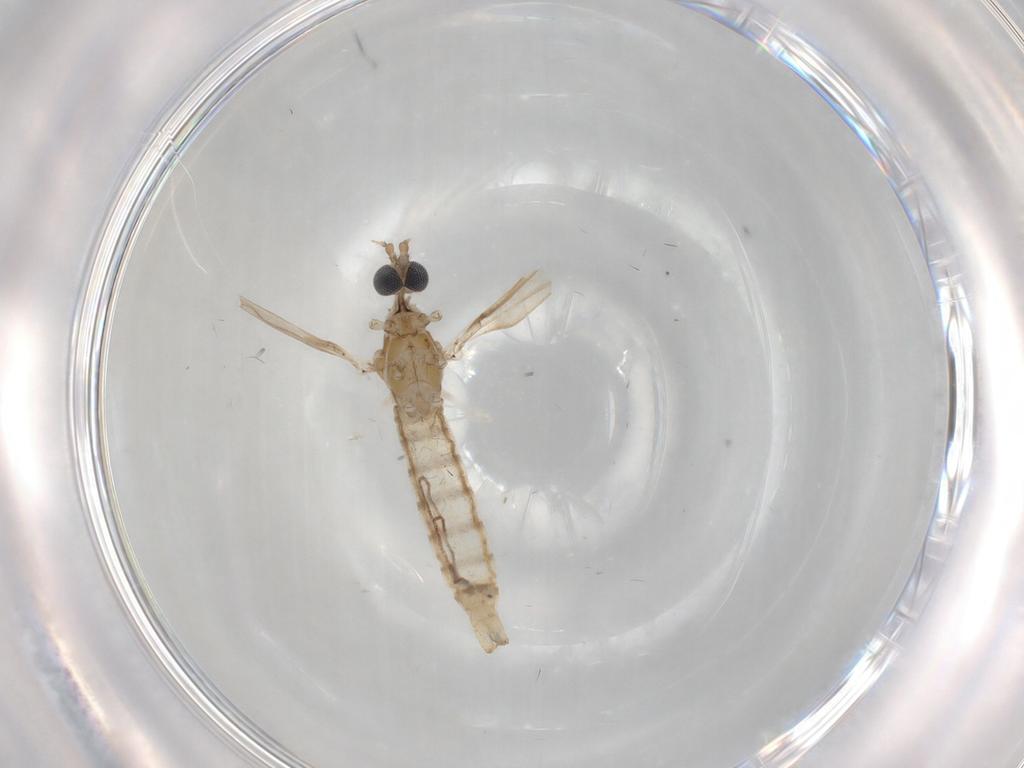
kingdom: Animalia
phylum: Arthropoda
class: Insecta
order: Diptera
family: Limoniidae
